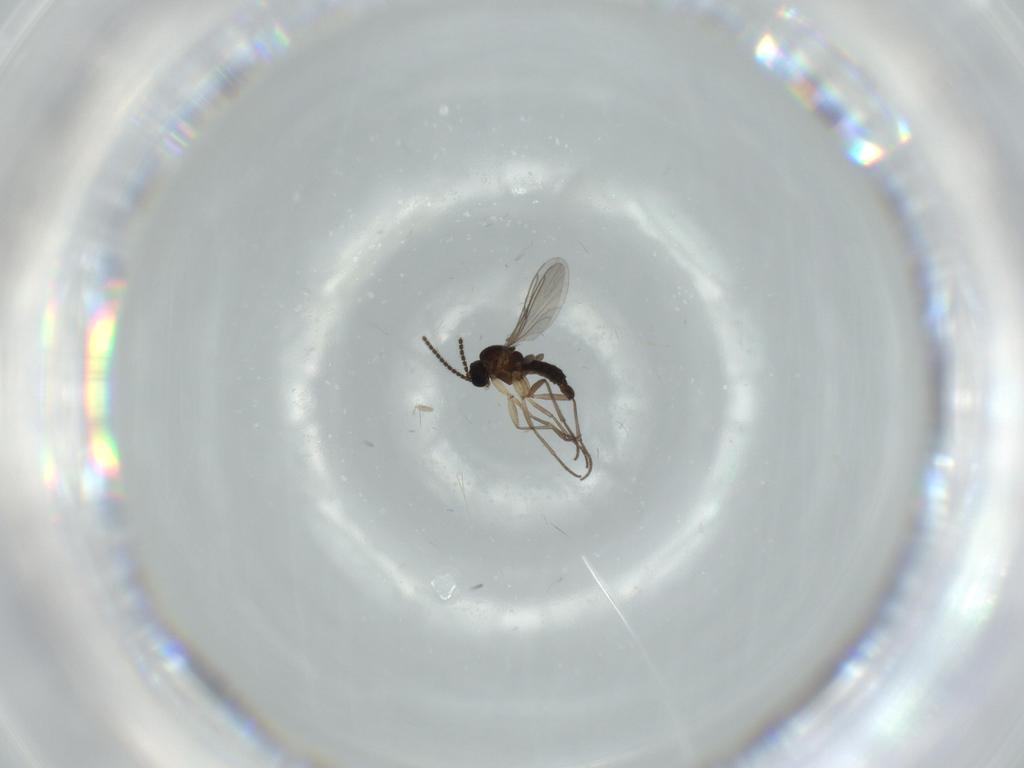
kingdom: Animalia
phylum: Arthropoda
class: Insecta
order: Diptera
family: Sciaridae
